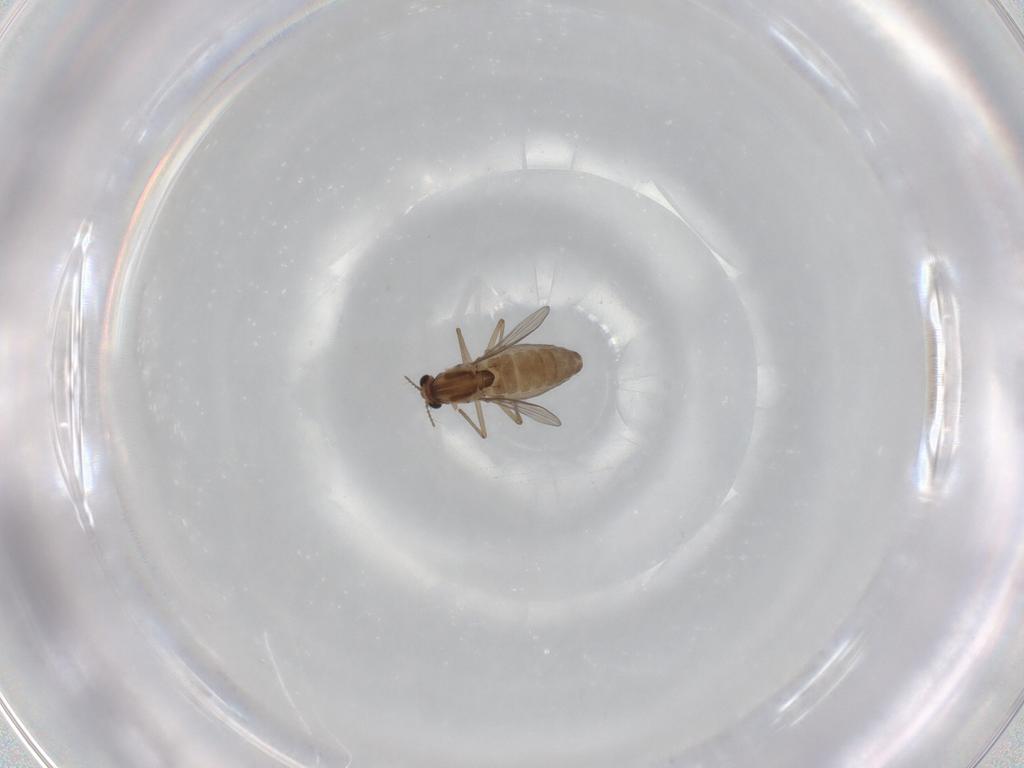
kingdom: Animalia
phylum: Arthropoda
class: Insecta
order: Diptera
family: Chironomidae
